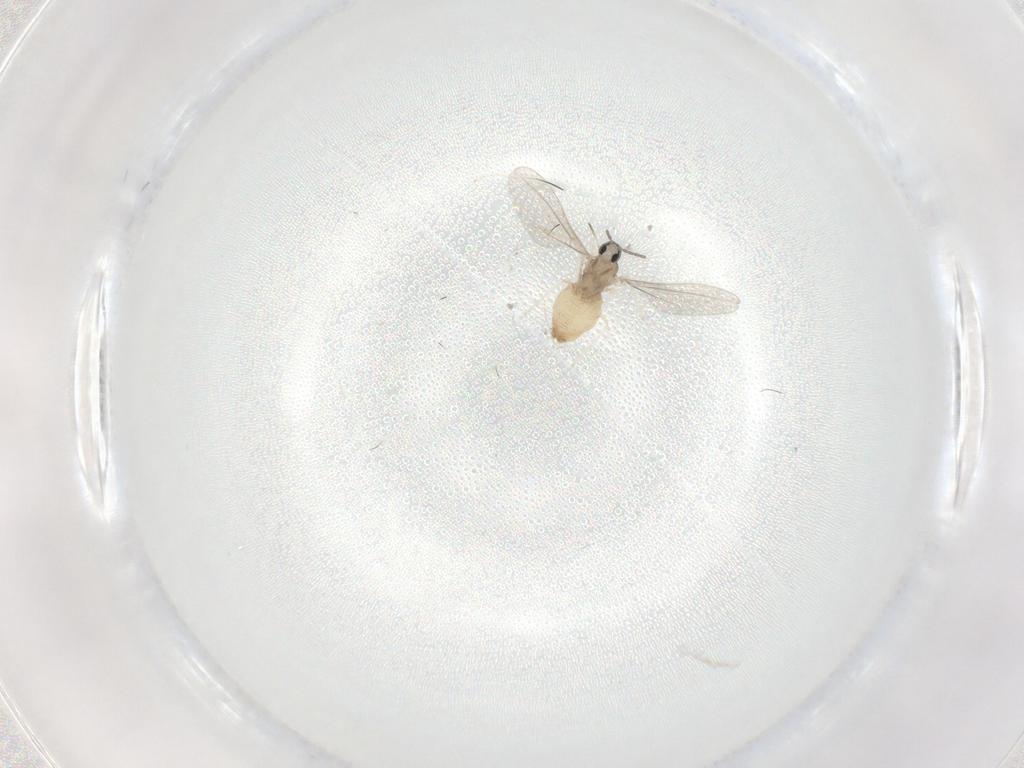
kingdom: Animalia
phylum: Arthropoda
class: Insecta
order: Diptera
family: Cecidomyiidae
